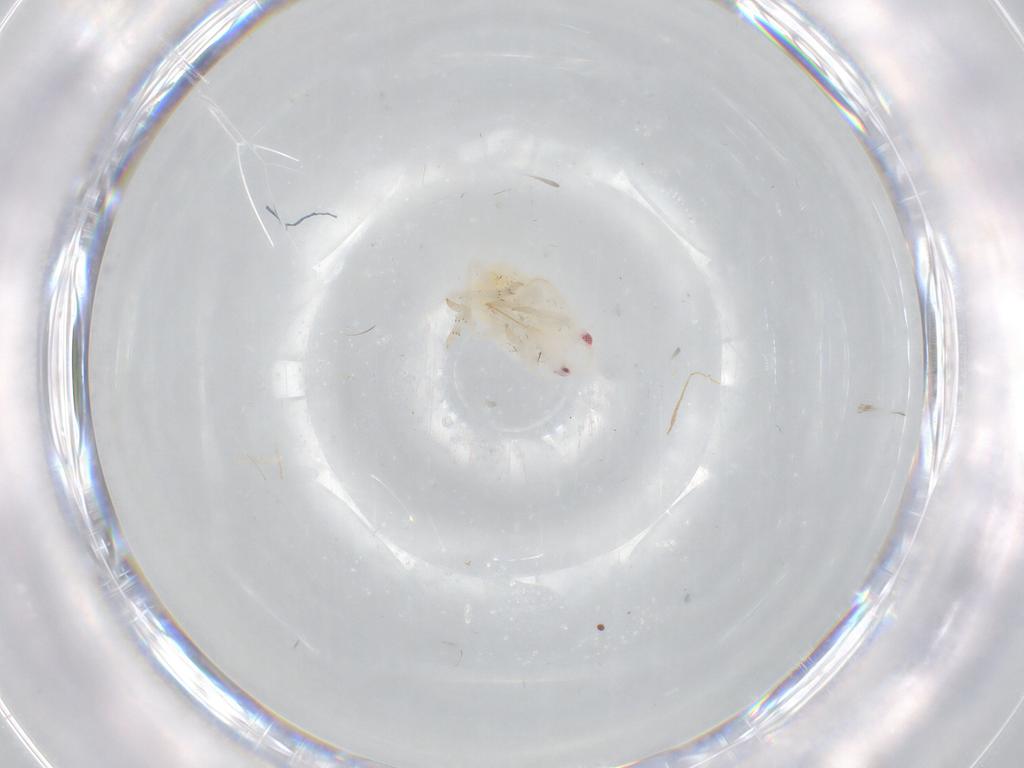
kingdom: Animalia
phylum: Arthropoda
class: Insecta
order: Hemiptera
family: Flatidae
